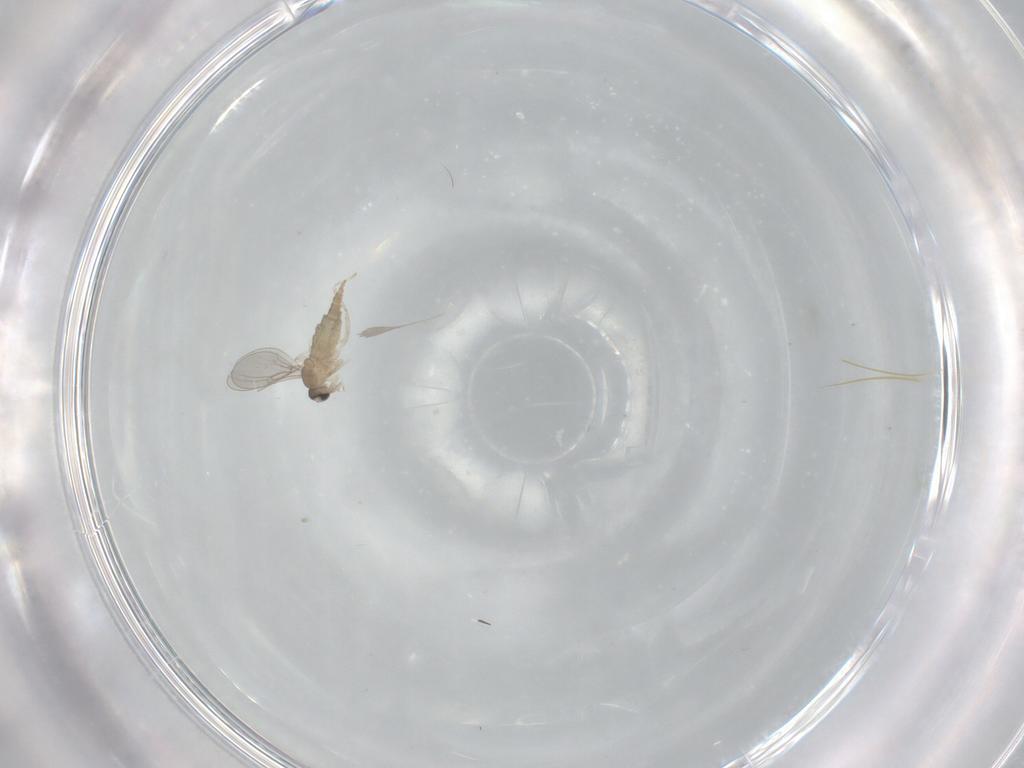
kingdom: Animalia
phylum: Arthropoda
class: Insecta
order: Diptera
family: Cecidomyiidae
